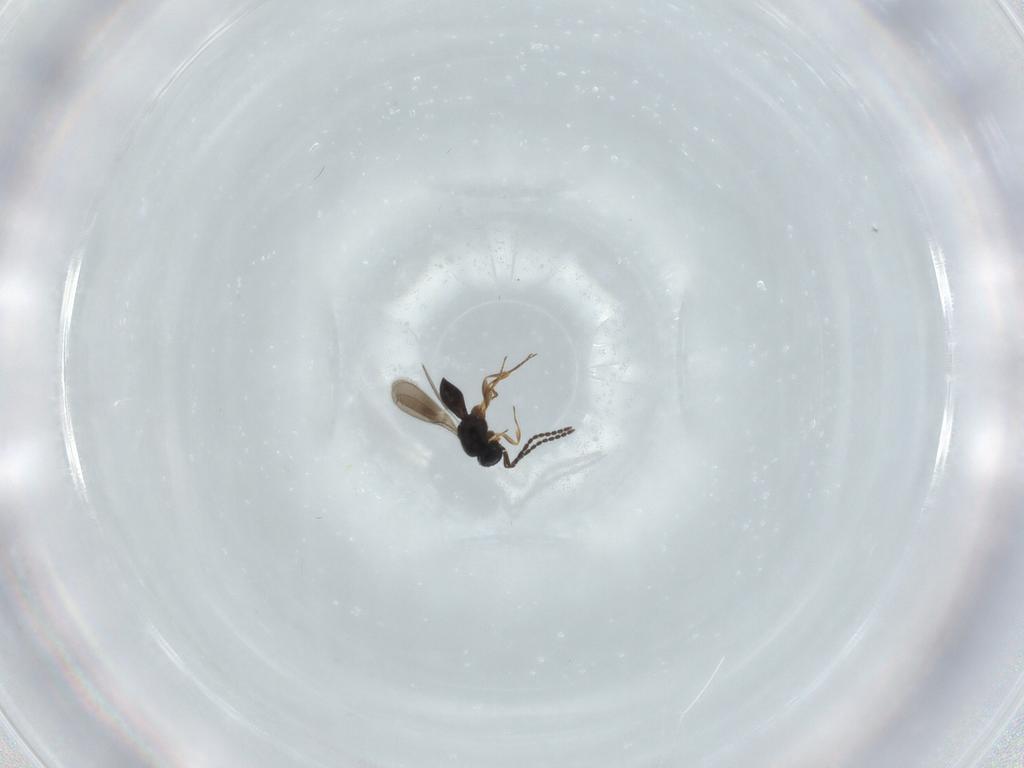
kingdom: Animalia
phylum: Arthropoda
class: Insecta
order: Hymenoptera
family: Scelionidae
